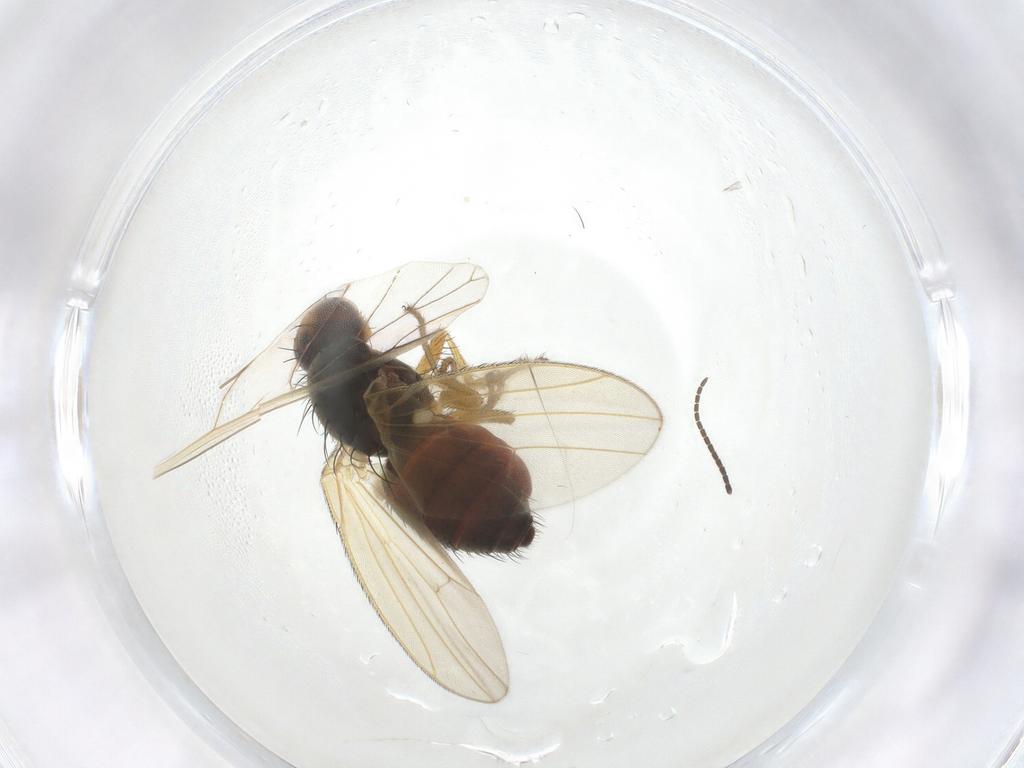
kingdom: Animalia
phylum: Arthropoda
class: Insecta
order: Diptera
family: Heleomyzidae
